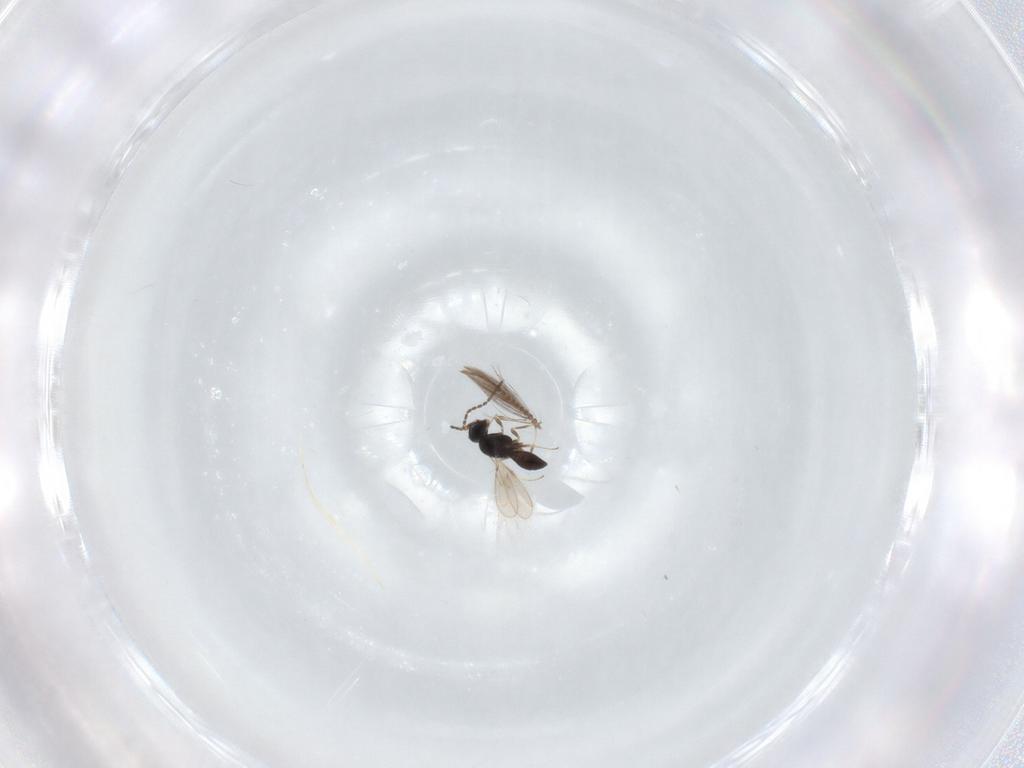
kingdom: Animalia
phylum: Arthropoda
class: Insecta
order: Hymenoptera
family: Scelionidae
